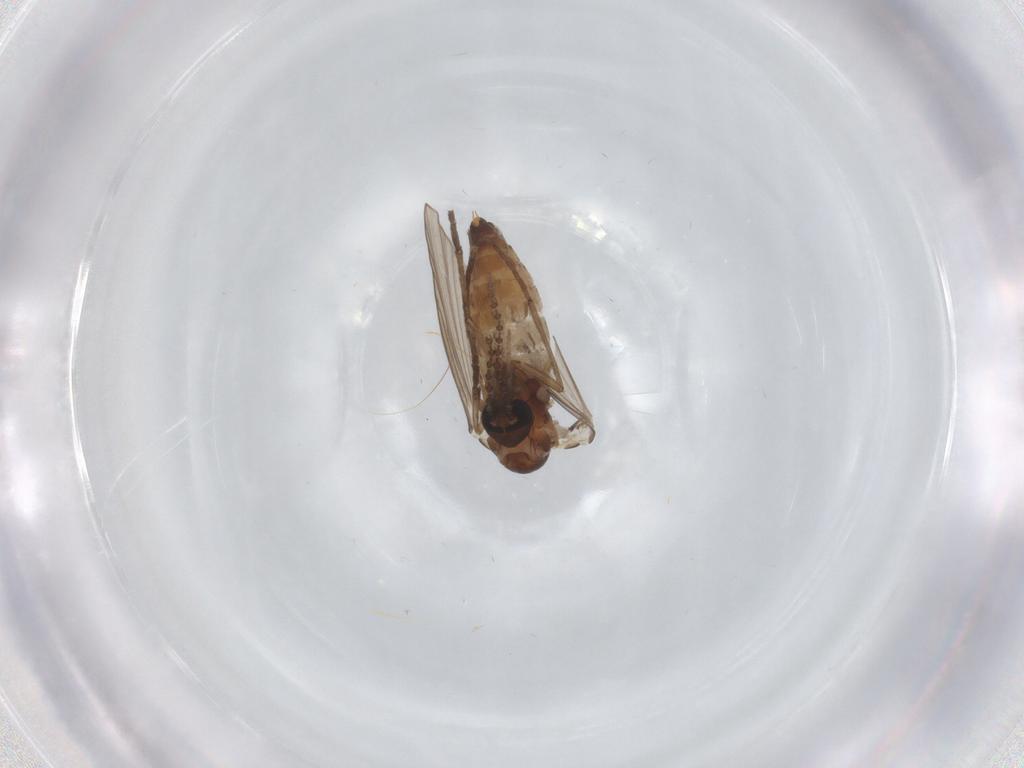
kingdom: Animalia
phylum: Arthropoda
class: Insecta
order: Diptera
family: Psychodidae
